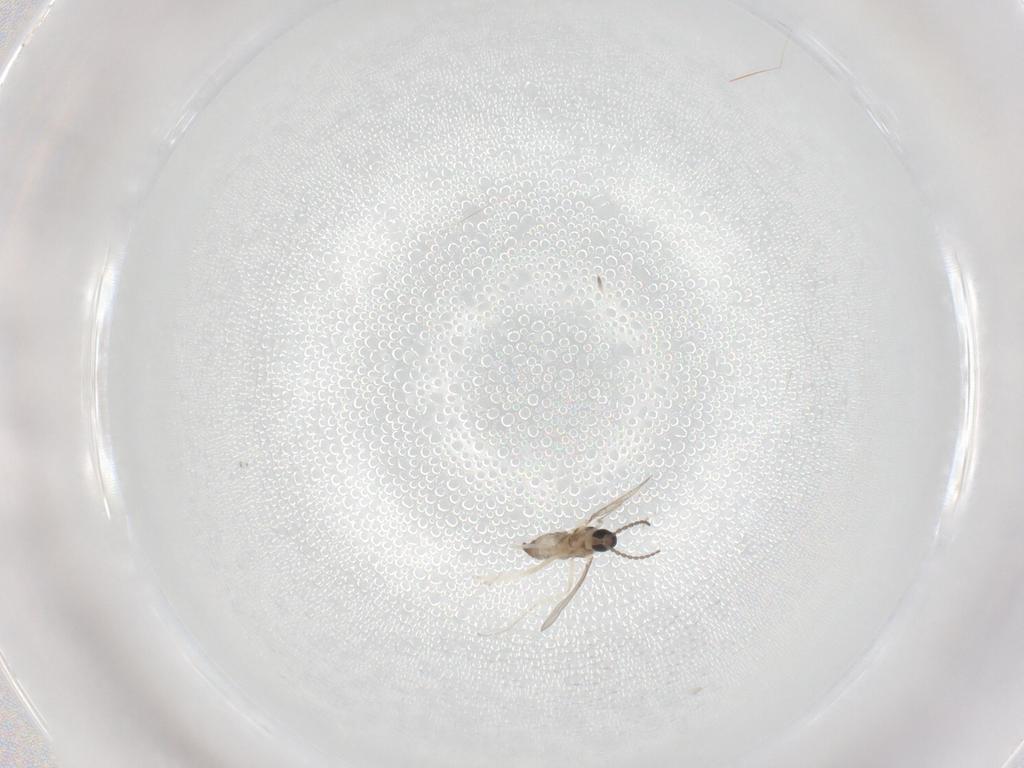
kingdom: Animalia
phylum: Arthropoda
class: Insecta
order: Diptera
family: Cecidomyiidae
